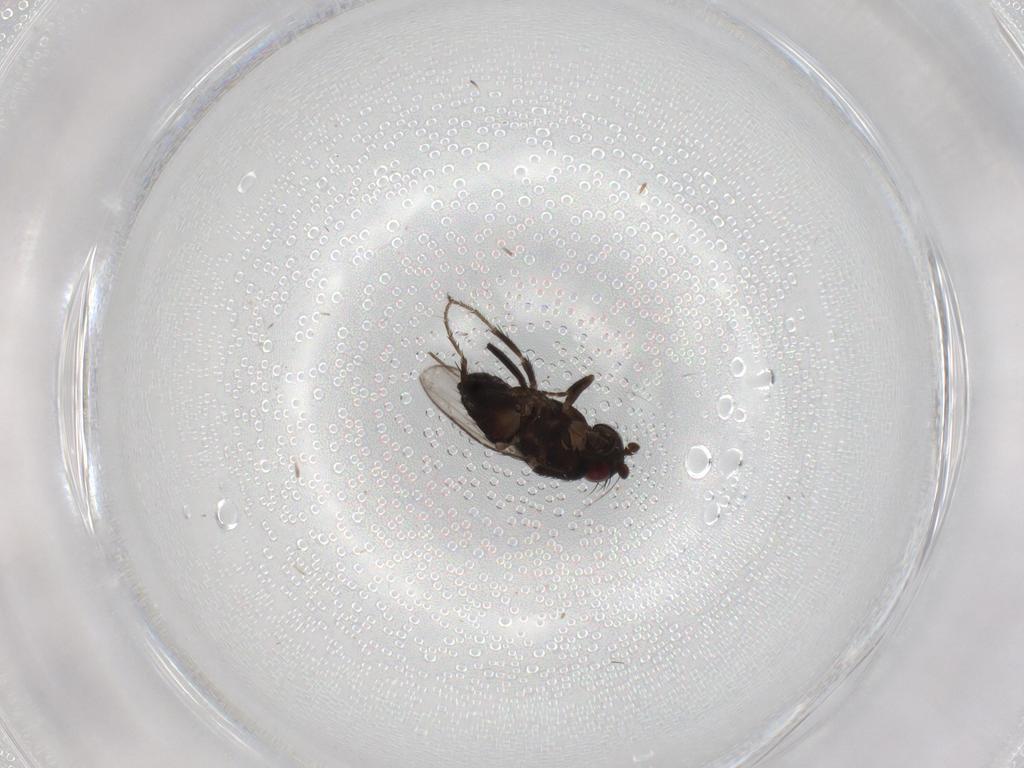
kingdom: Animalia
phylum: Arthropoda
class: Insecta
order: Diptera
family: Sphaeroceridae
